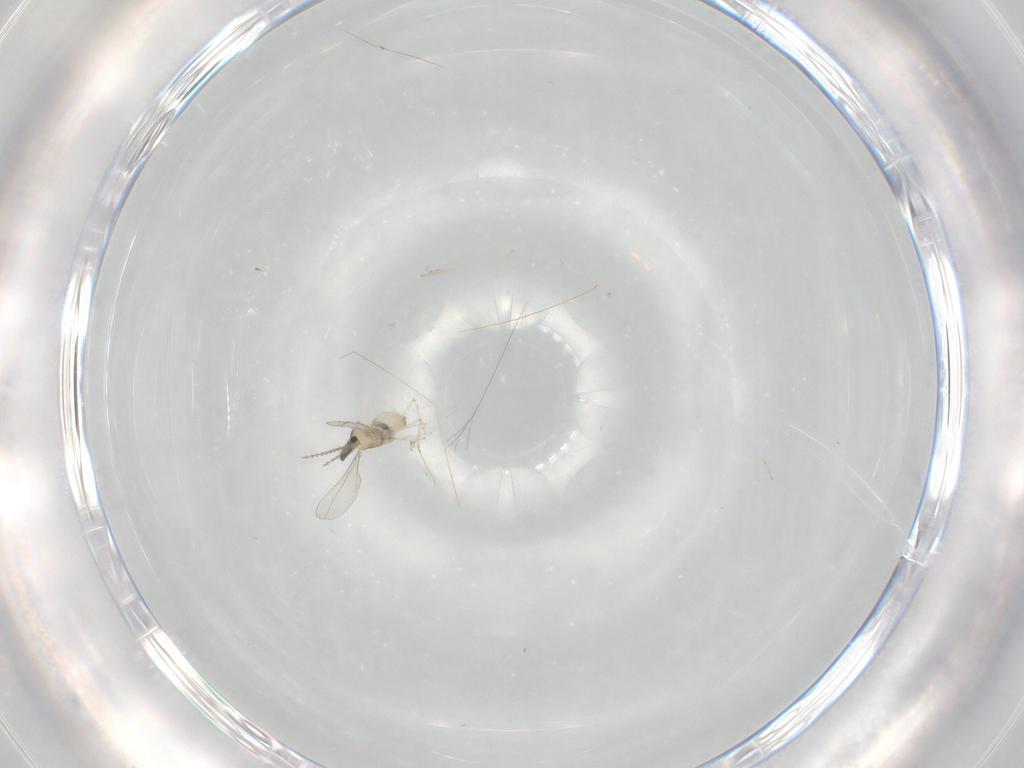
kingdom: Animalia
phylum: Arthropoda
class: Insecta
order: Diptera
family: Cecidomyiidae
